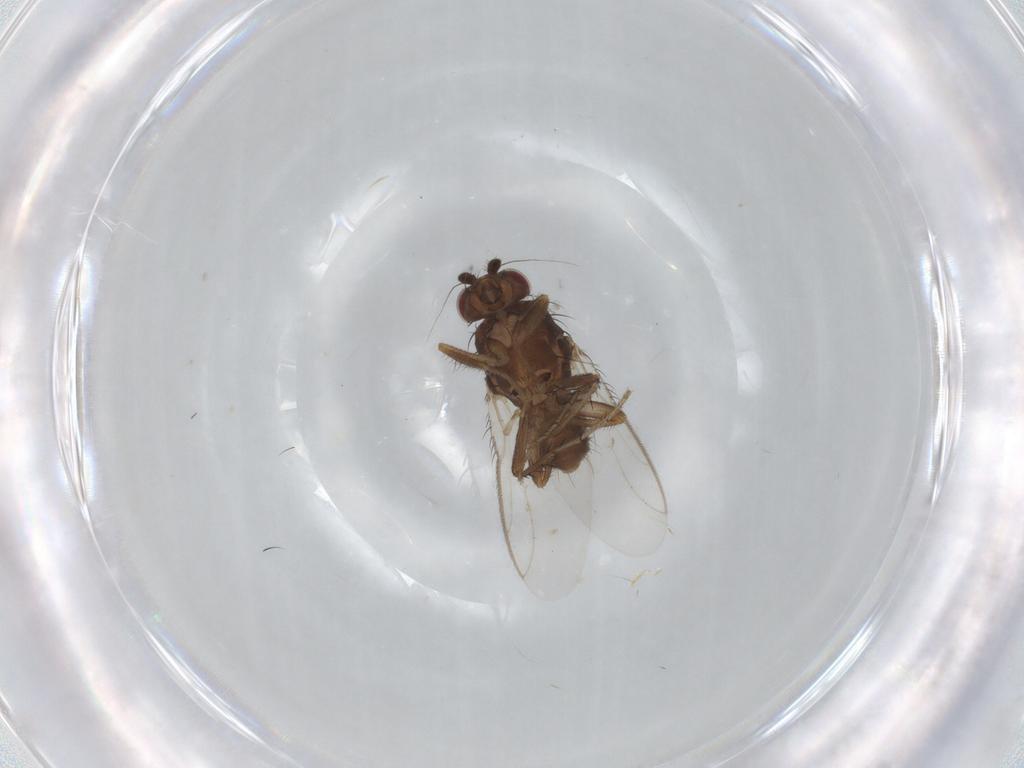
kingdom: Animalia
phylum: Arthropoda
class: Insecta
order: Diptera
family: Sphaeroceridae
